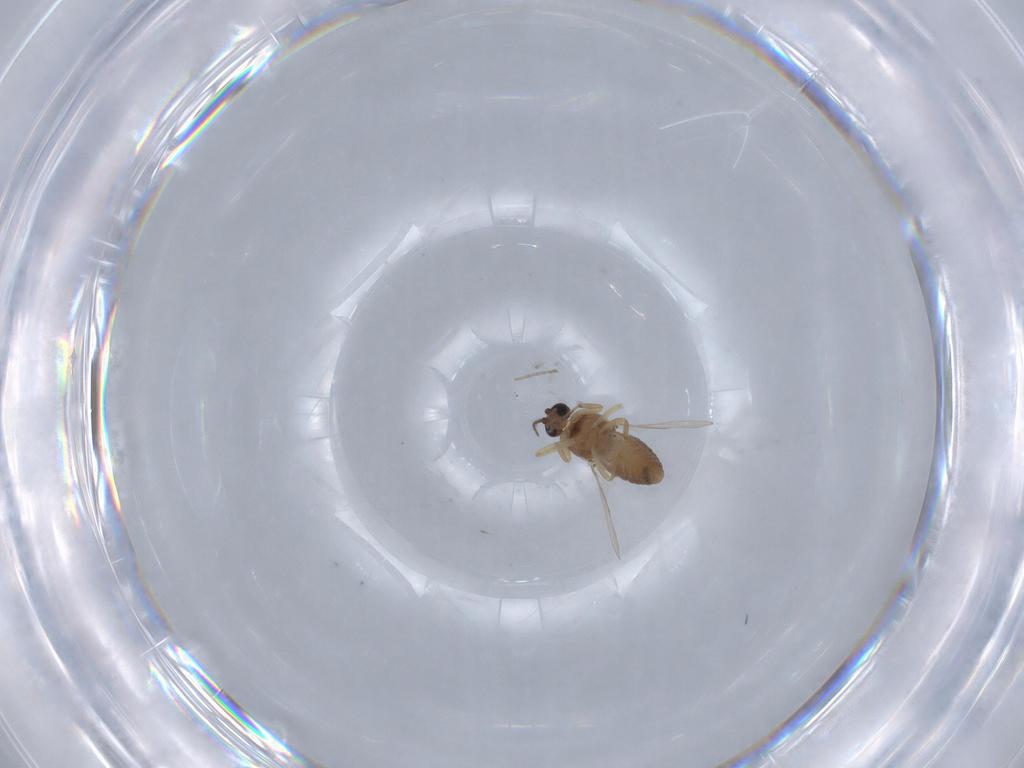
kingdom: Animalia
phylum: Arthropoda
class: Insecta
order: Diptera
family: Ceratopogonidae
